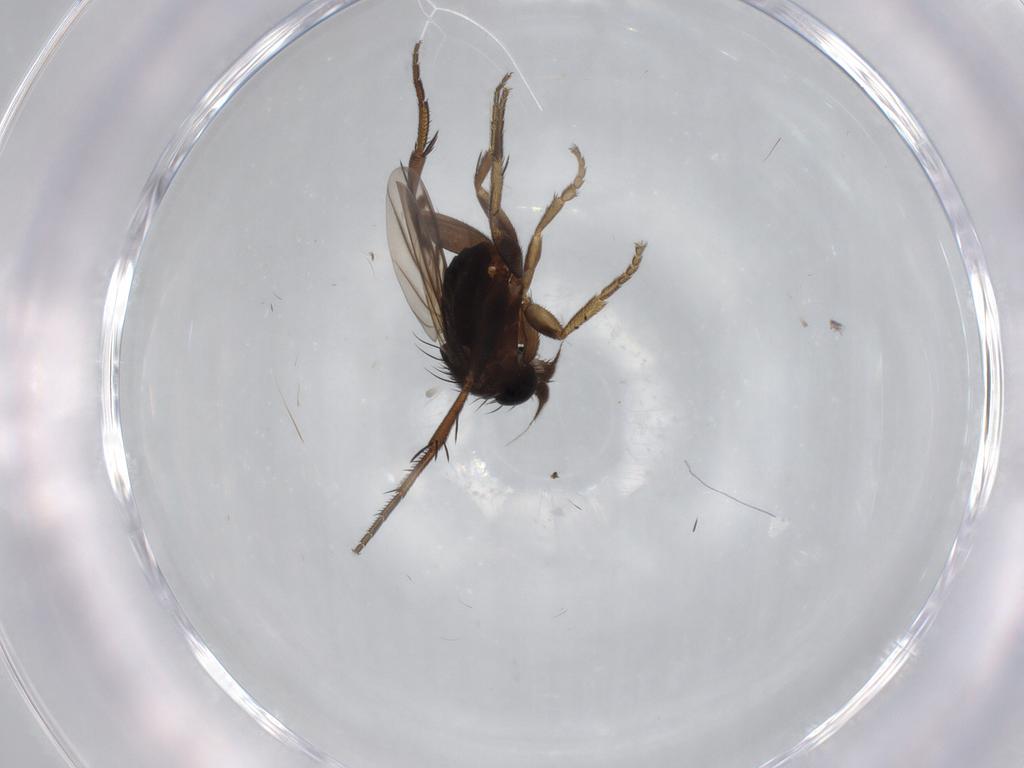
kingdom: Animalia
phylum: Arthropoda
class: Insecta
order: Diptera
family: Phoridae
